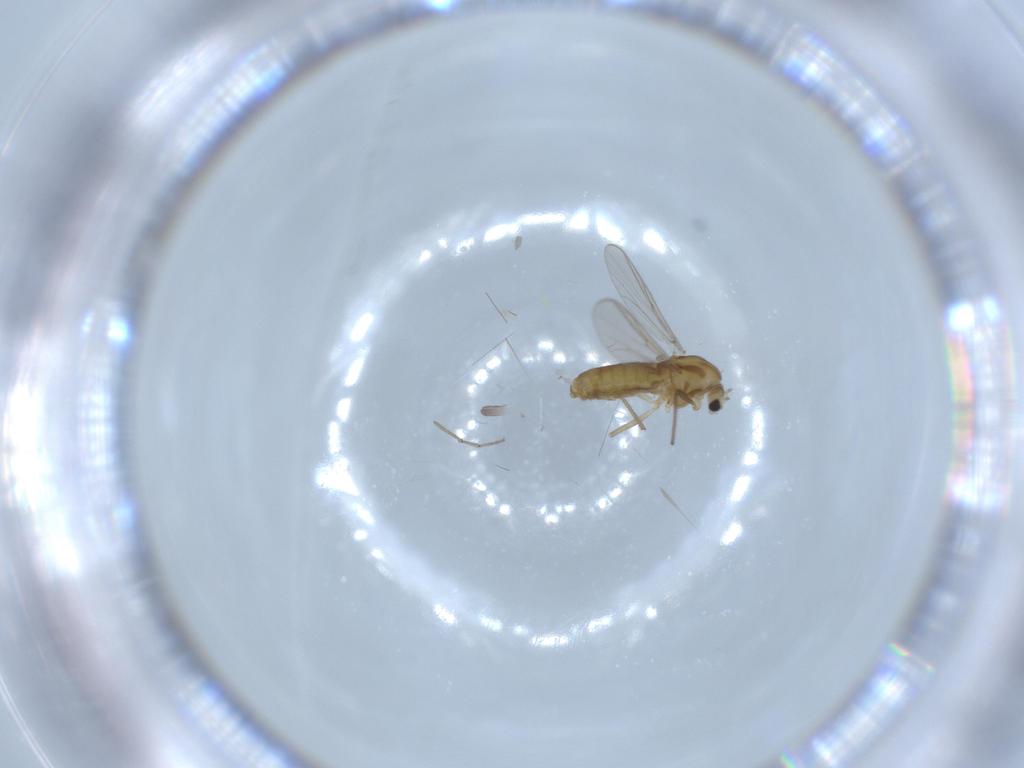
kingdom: Animalia
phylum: Arthropoda
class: Insecta
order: Diptera
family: Chironomidae
